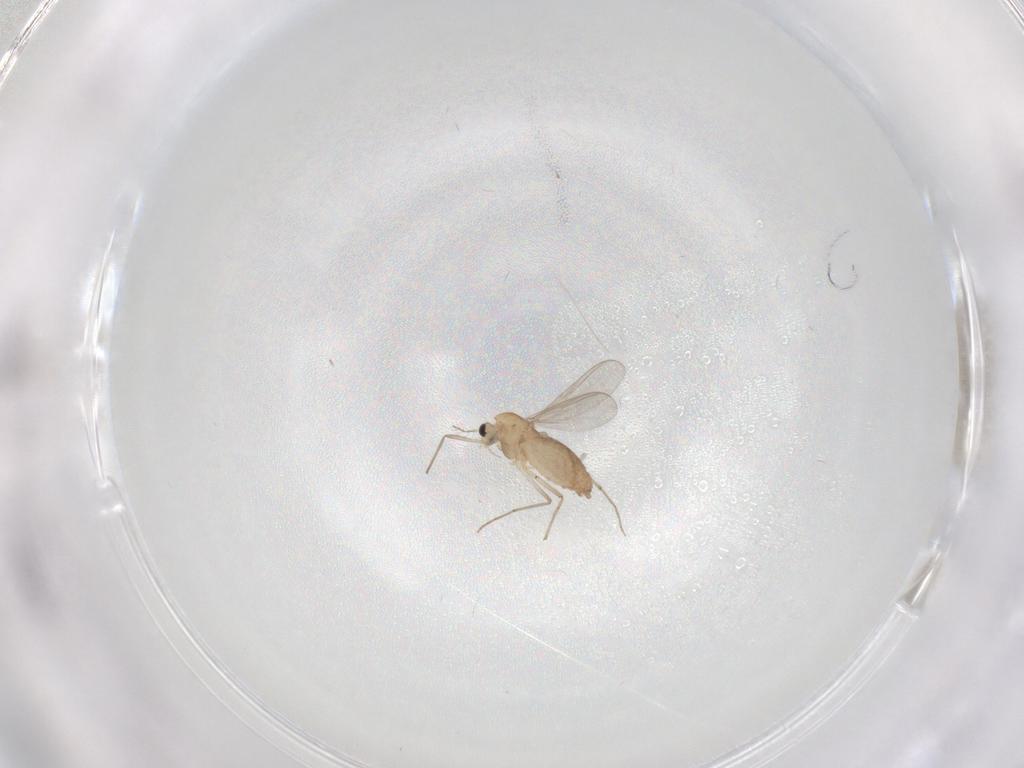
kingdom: Animalia
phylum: Arthropoda
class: Insecta
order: Diptera
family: Chironomidae
